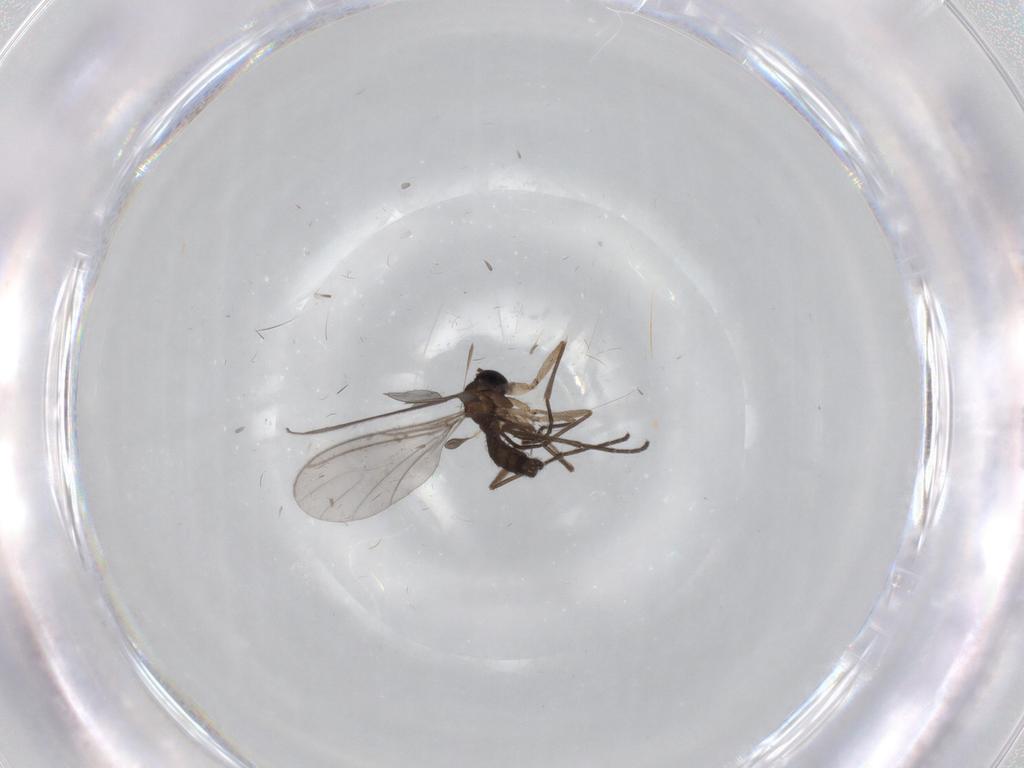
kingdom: Animalia
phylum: Arthropoda
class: Insecta
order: Diptera
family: Sciaridae
